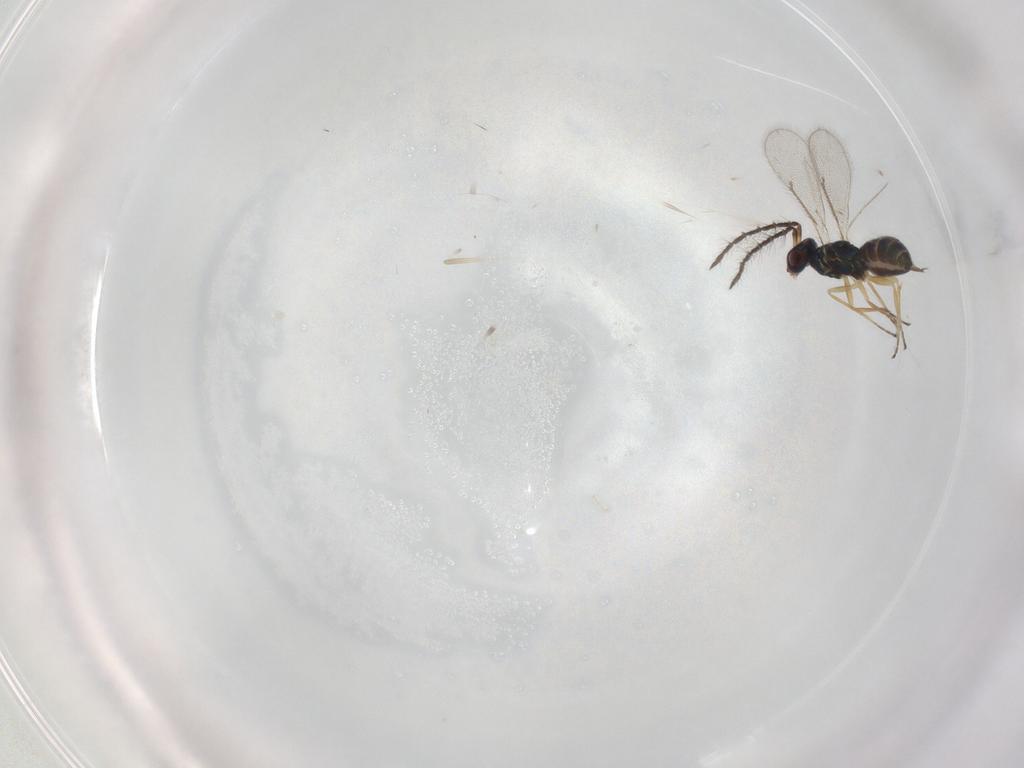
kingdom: Animalia
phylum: Arthropoda
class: Insecta
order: Hymenoptera
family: Eulophidae
